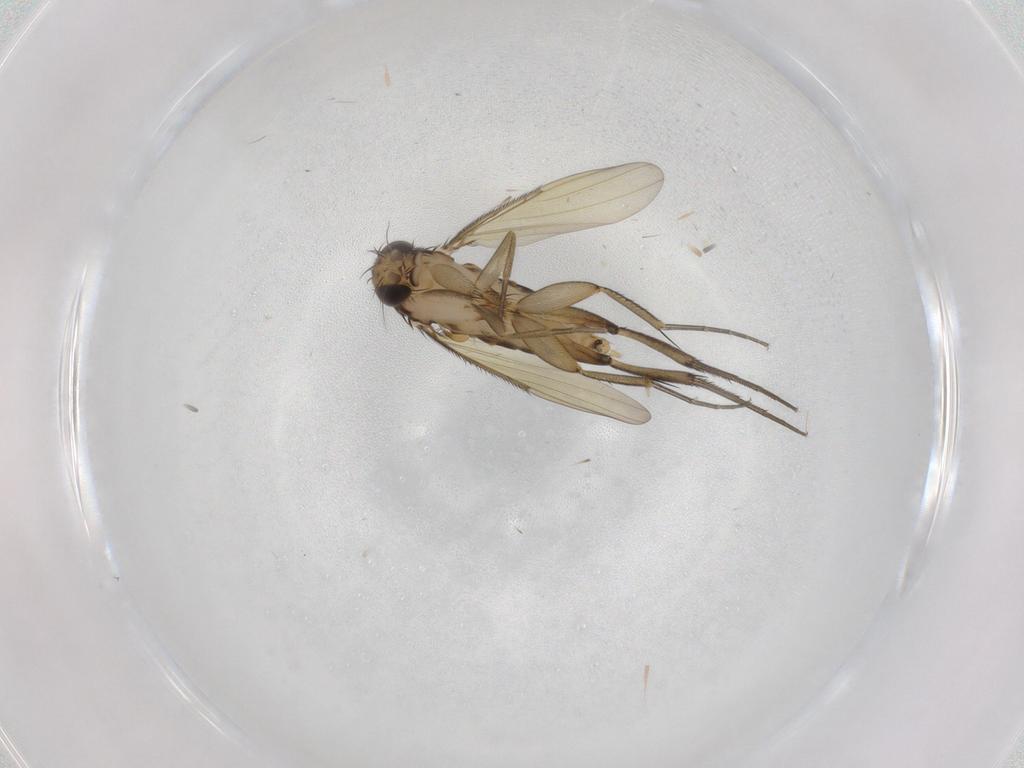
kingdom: Animalia
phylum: Arthropoda
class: Insecta
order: Diptera
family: Phoridae
